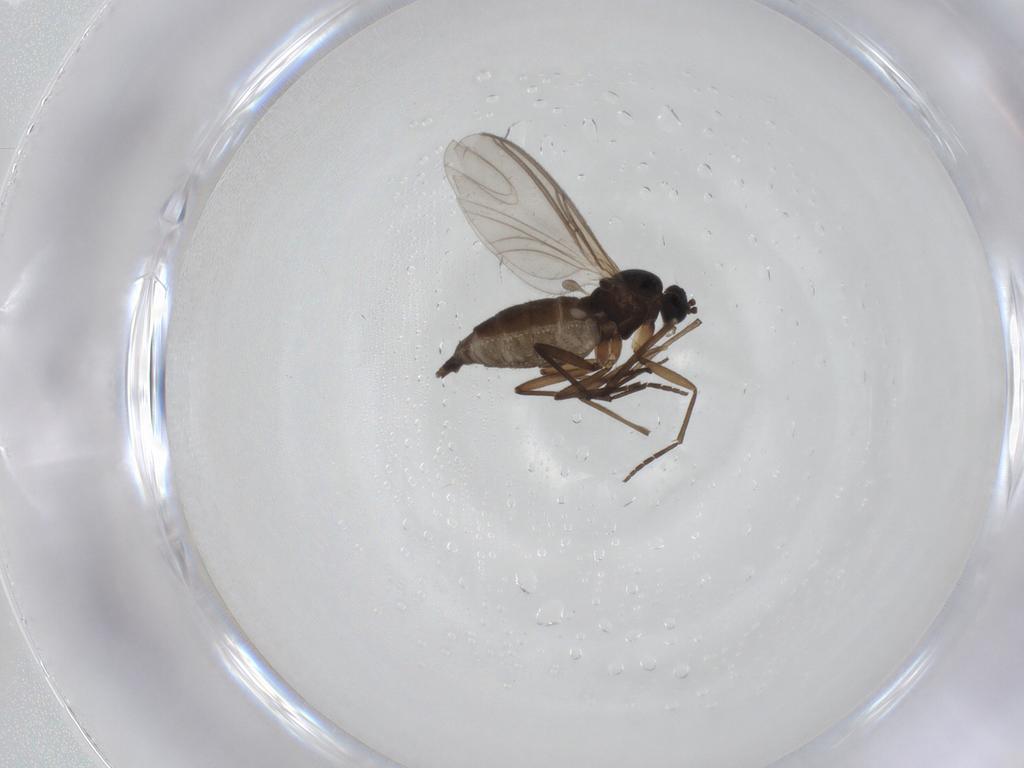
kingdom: Animalia
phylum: Arthropoda
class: Insecta
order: Diptera
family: Sciaridae
